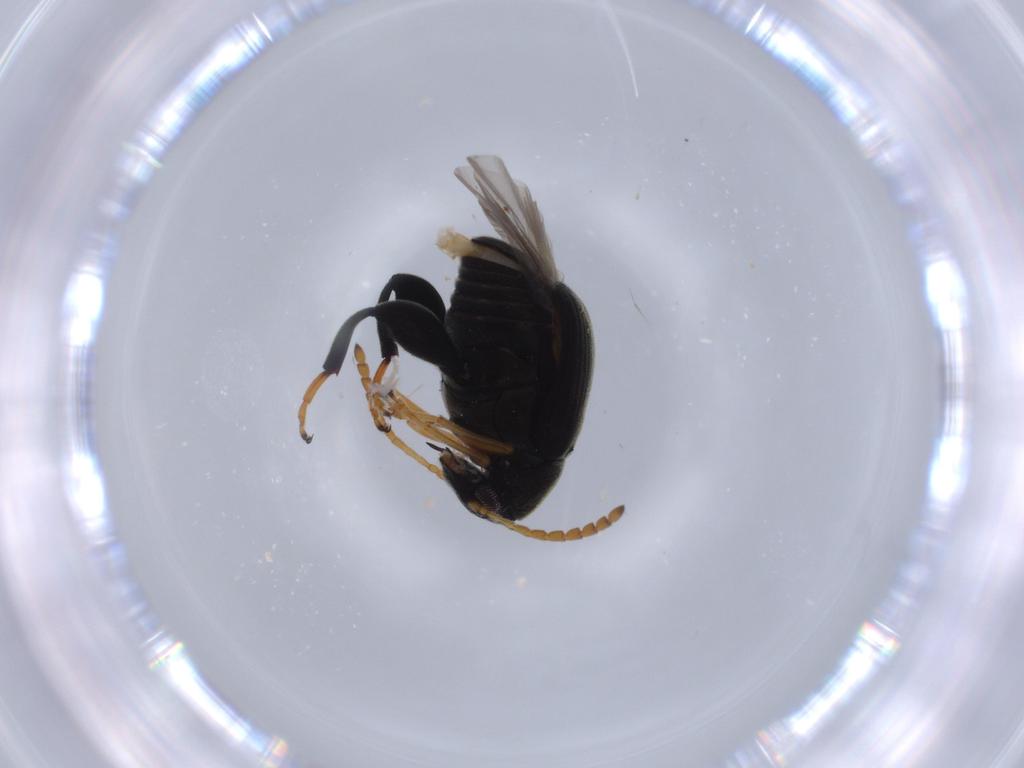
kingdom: Animalia
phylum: Arthropoda
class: Insecta
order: Coleoptera
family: Chrysomelidae
